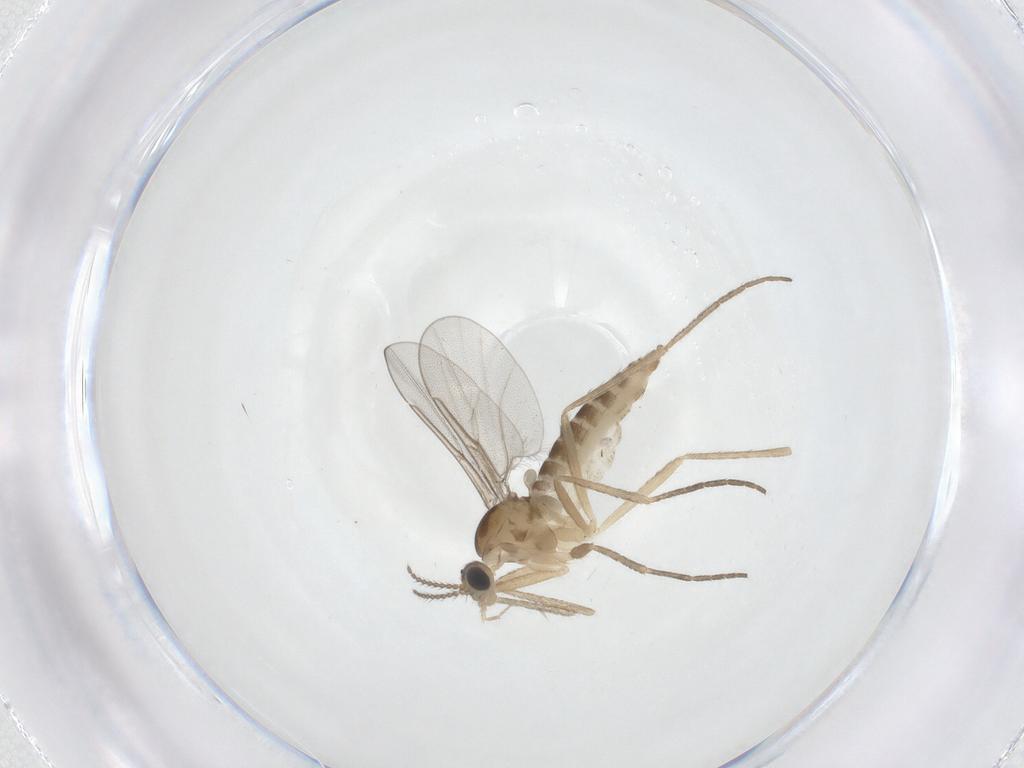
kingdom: Animalia
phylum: Arthropoda
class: Insecta
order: Diptera
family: Cecidomyiidae
